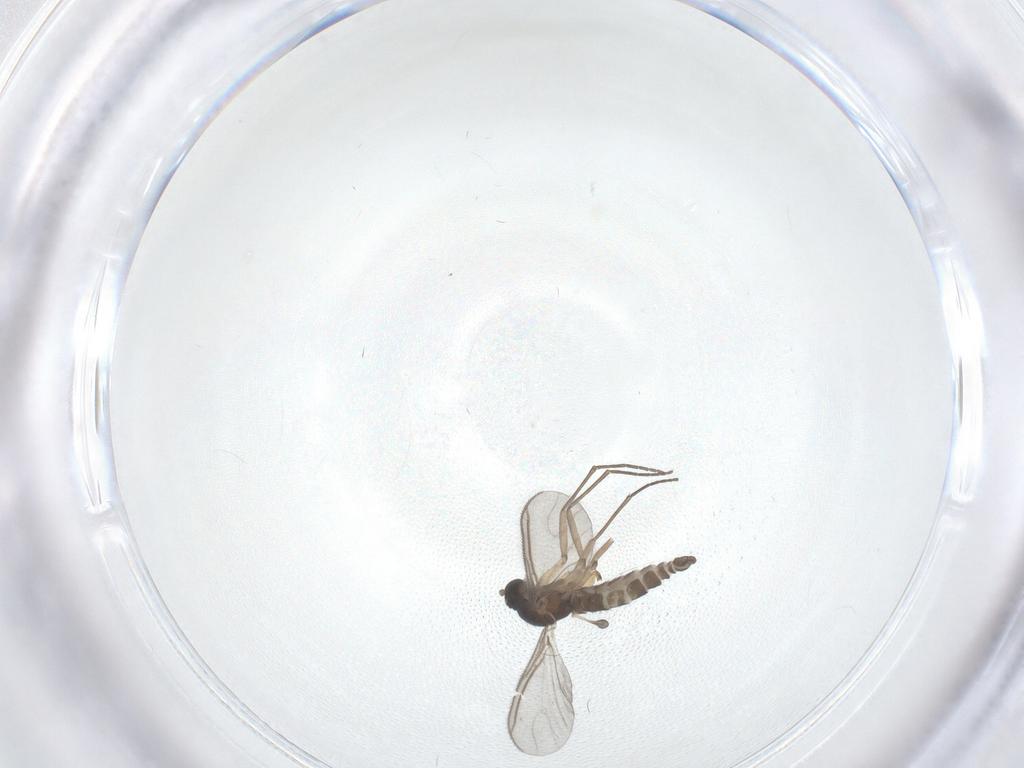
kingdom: Animalia
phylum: Arthropoda
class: Insecta
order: Diptera
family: Sciaridae
